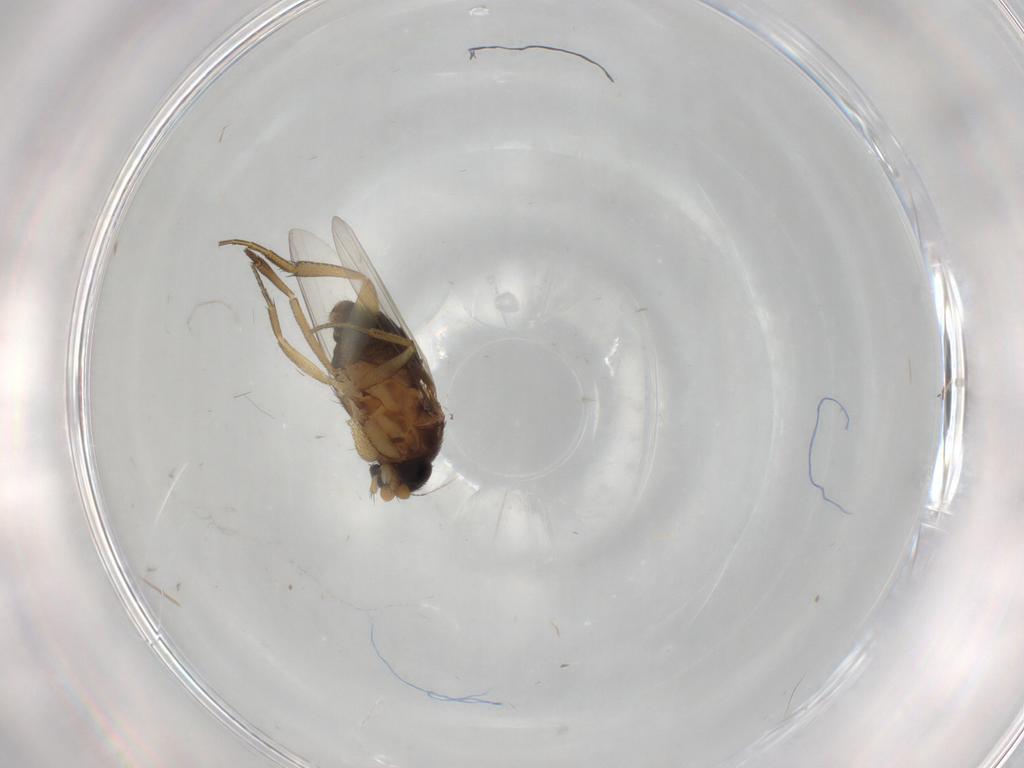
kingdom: Animalia
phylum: Arthropoda
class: Insecta
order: Diptera
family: Phoridae
